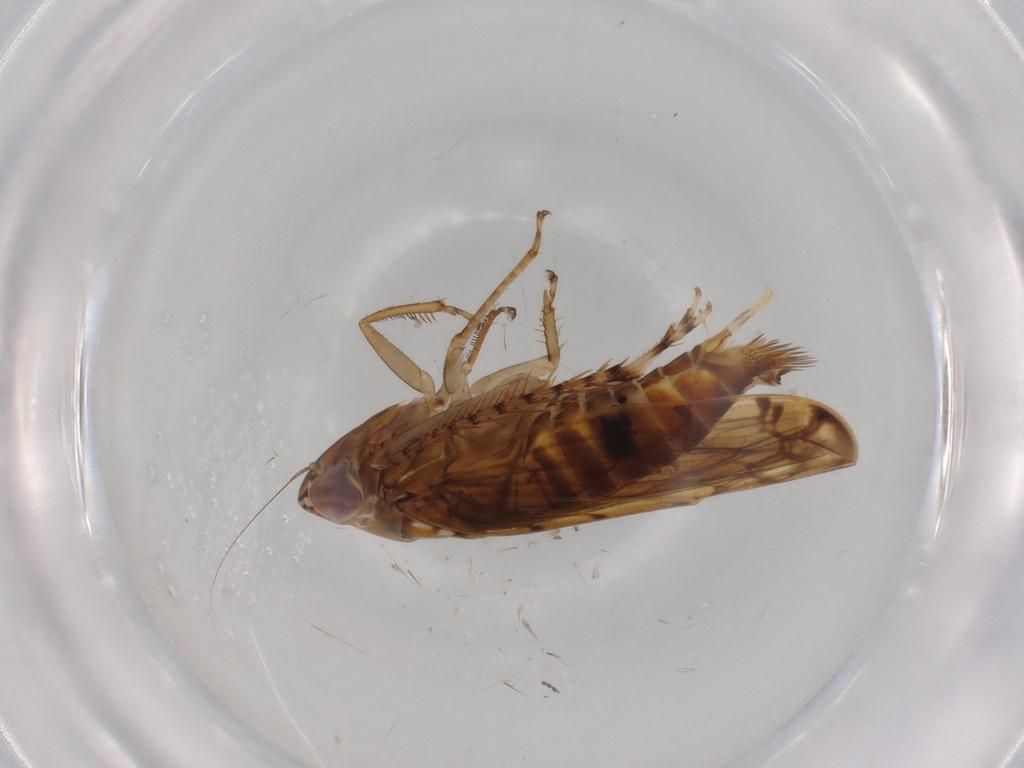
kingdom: Animalia
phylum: Arthropoda
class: Insecta
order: Hemiptera
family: Cicadellidae
